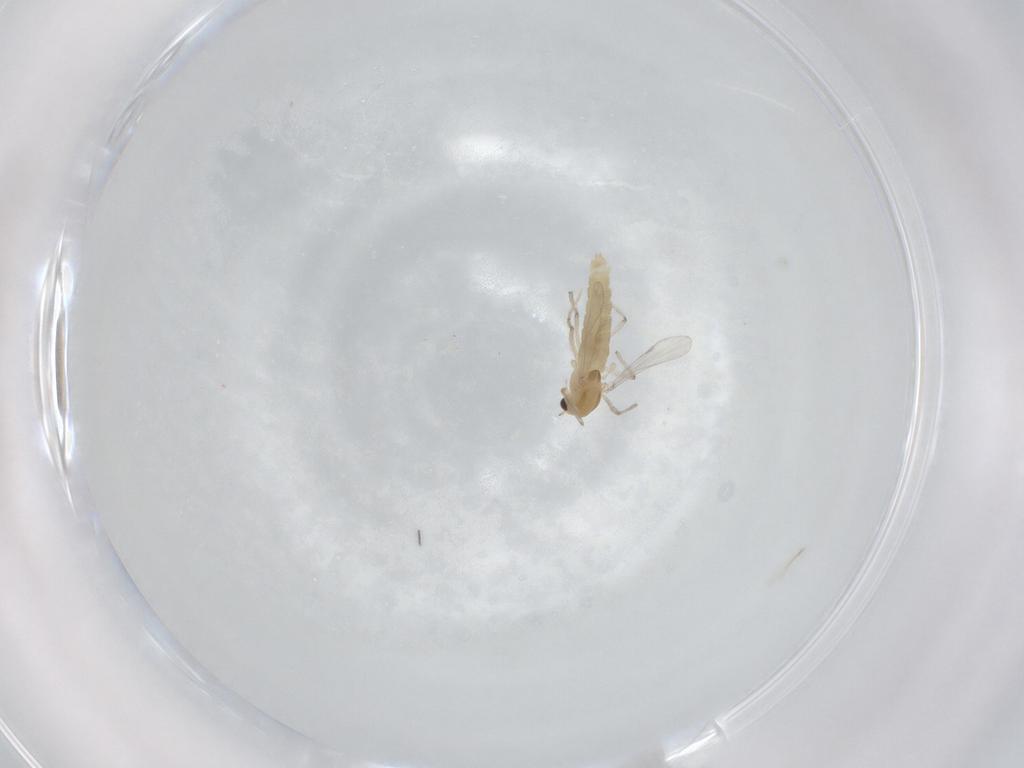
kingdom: Animalia
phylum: Arthropoda
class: Insecta
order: Diptera
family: Chironomidae
